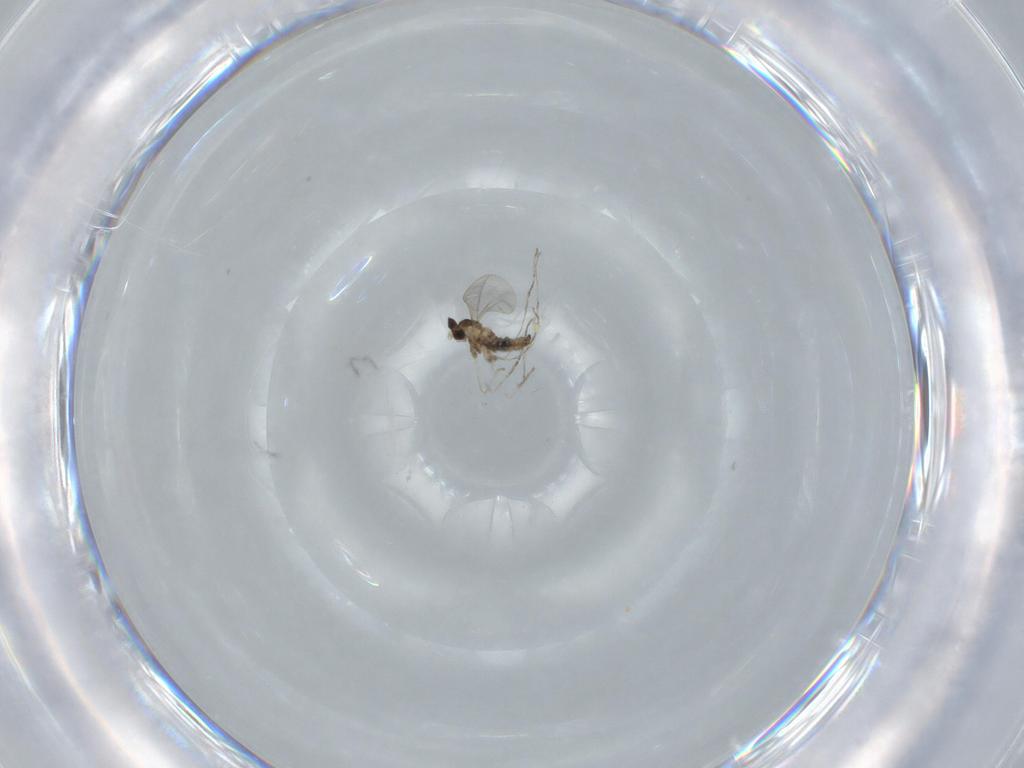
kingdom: Animalia
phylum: Arthropoda
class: Insecta
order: Diptera
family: Cecidomyiidae
